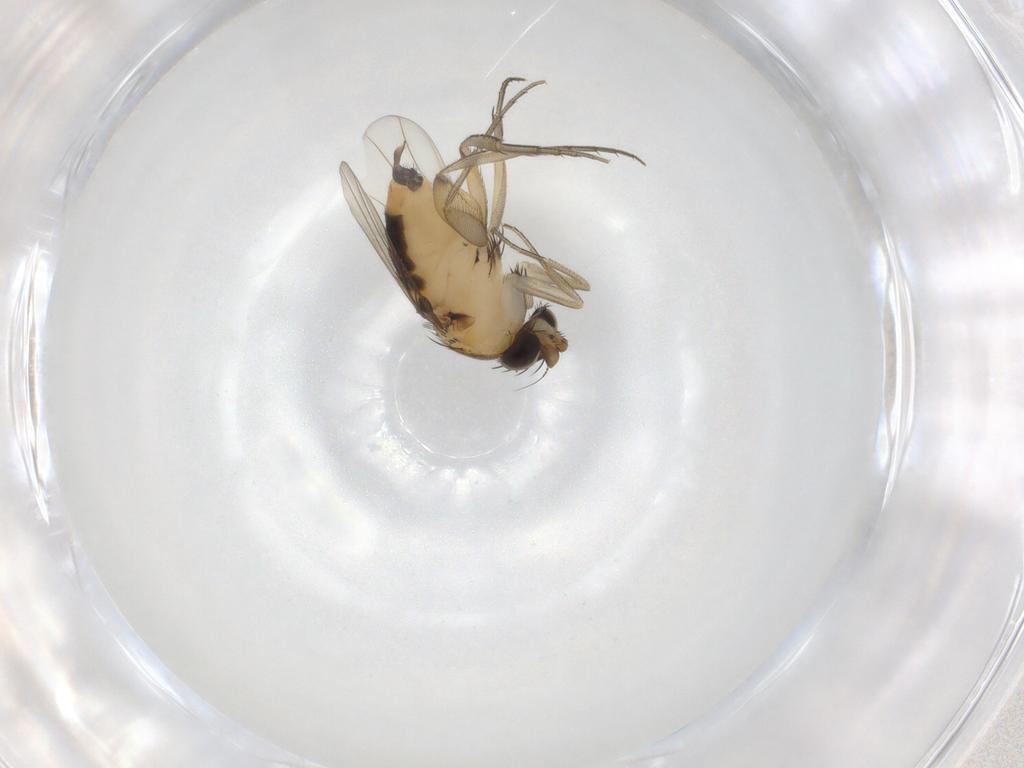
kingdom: Animalia
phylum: Arthropoda
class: Insecta
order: Diptera
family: Phoridae
